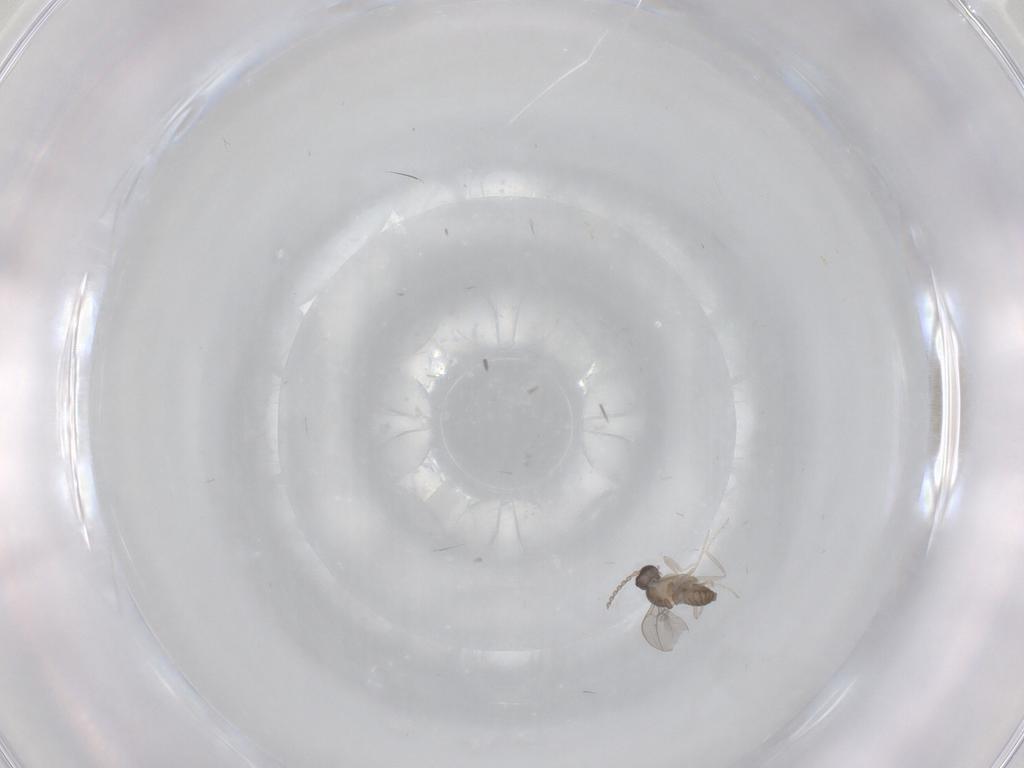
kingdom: Animalia
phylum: Arthropoda
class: Insecta
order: Diptera
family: Cecidomyiidae
